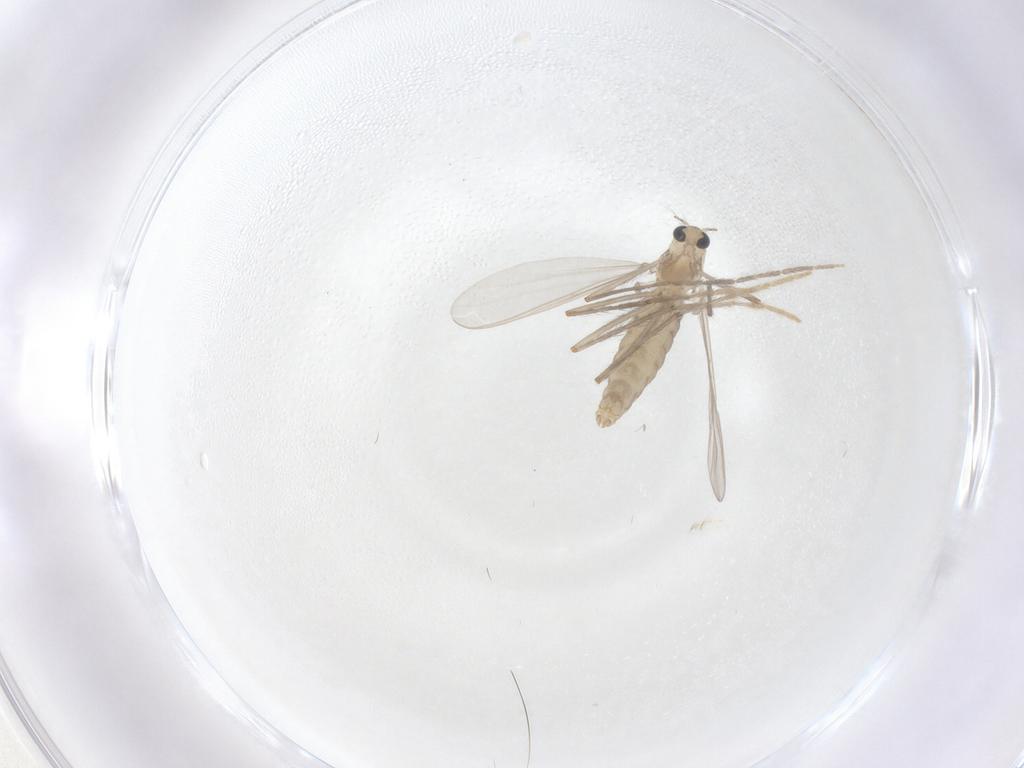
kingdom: Animalia
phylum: Arthropoda
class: Insecta
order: Diptera
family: Chironomidae
